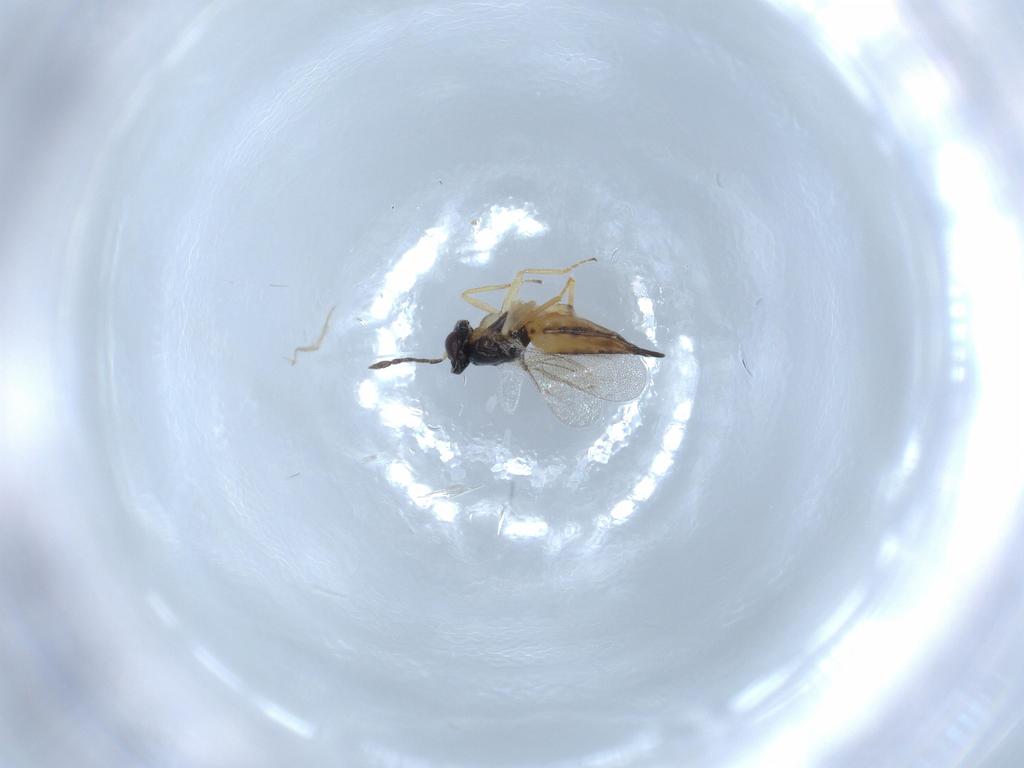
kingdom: Animalia
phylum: Arthropoda
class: Insecta
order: Hymenoptera
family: Eulophidae
